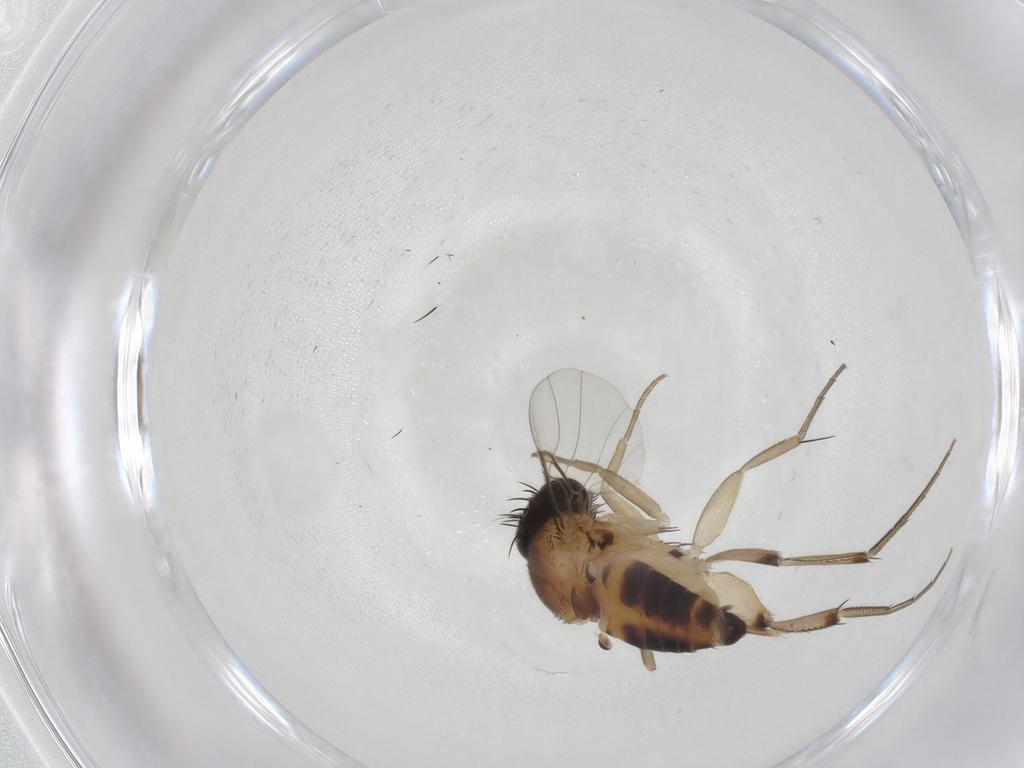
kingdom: Animalia
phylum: Arthropoda
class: Insecta
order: Diptera
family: Phoridae
